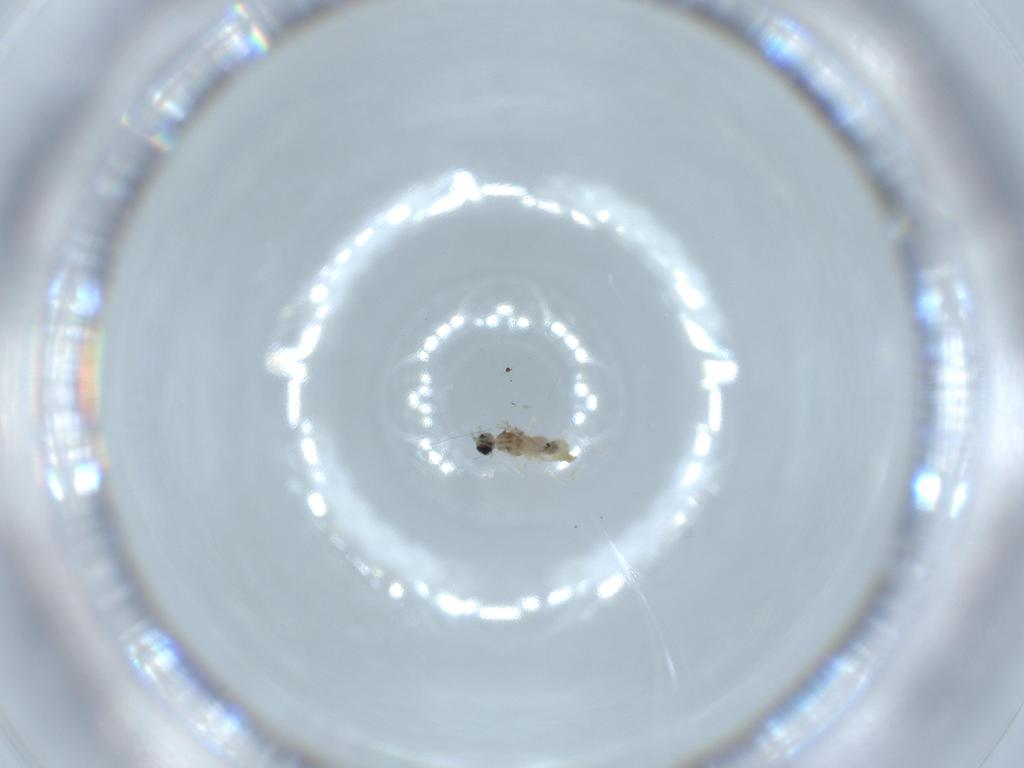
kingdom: Animalia
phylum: Arthropoda
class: Insecta
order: Diptera
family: Cecidomyiidae
